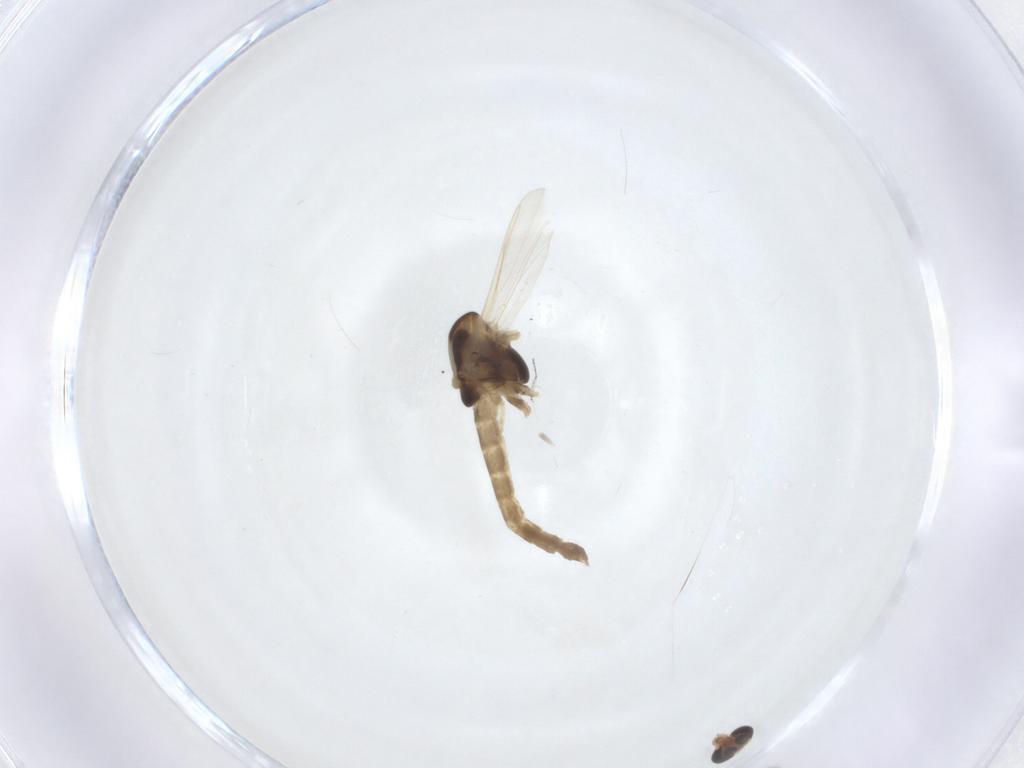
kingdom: Animalia
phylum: Arthropoda
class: Insecta
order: Diptera
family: Chironomidae
